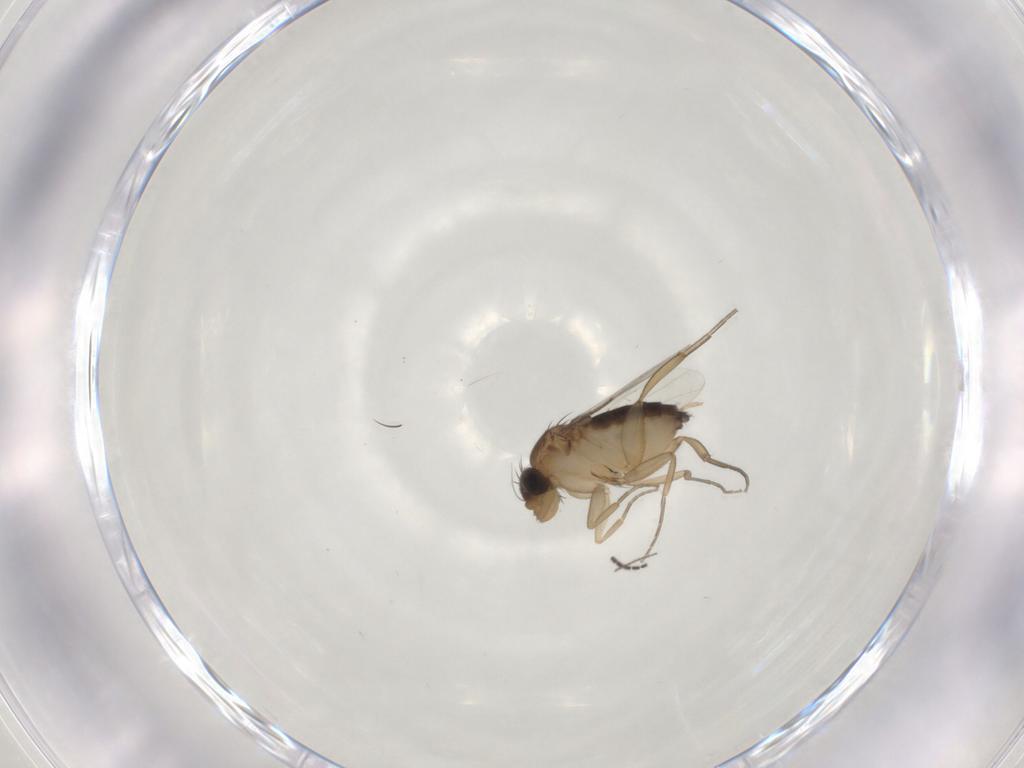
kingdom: Animalia
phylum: Arthropoda
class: Insecta
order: Diptera
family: Sciaridae
